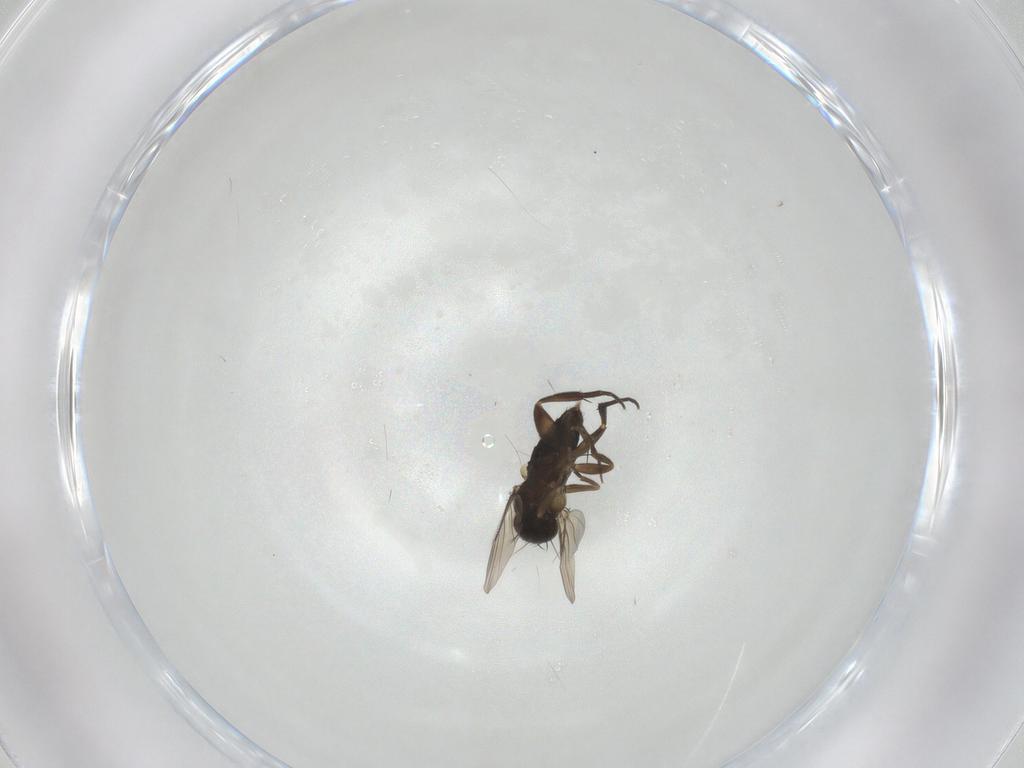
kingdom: Animalia
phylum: Arthropoda
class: Insecta
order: Diptera
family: Phoridae
